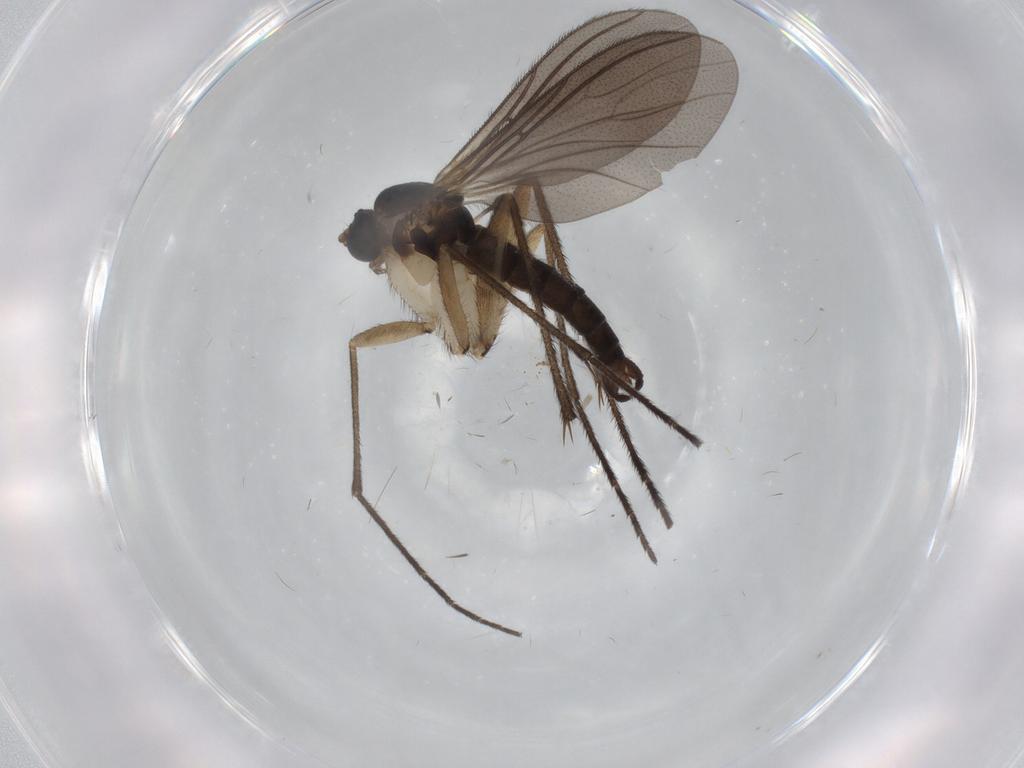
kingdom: Animalia
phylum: Arthropoda
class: Insecta
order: Diptera
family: Sciaridae
